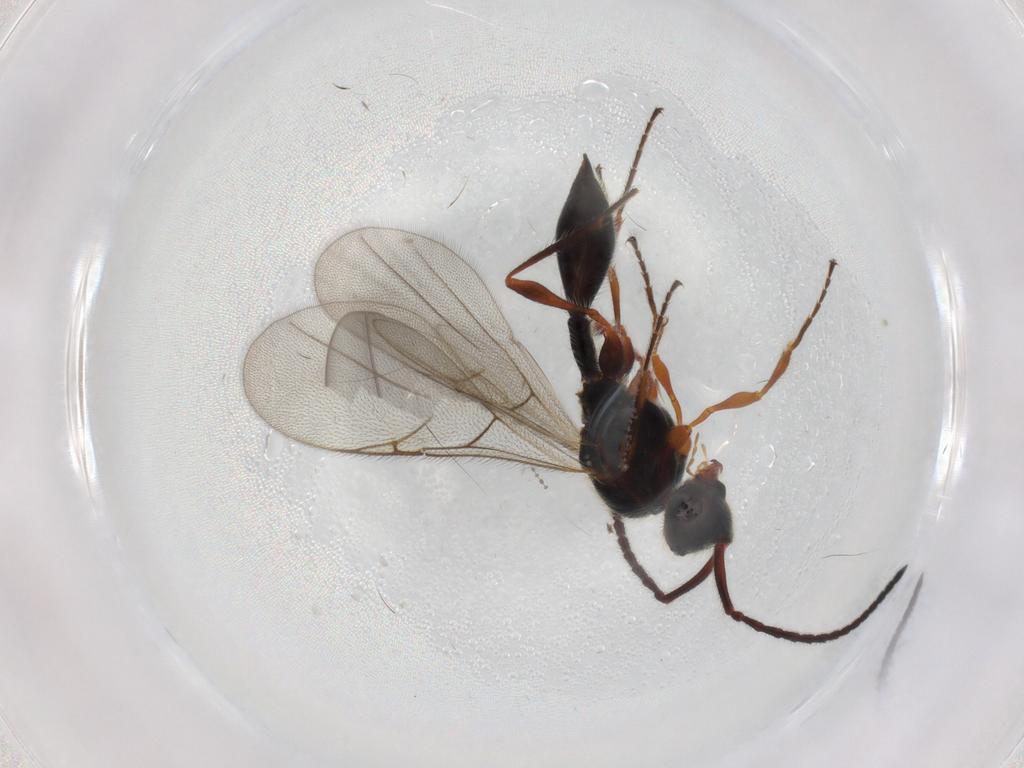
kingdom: Animalia
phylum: Arthropoda
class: Insecta
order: Hymenoptera
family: Diapriidae
